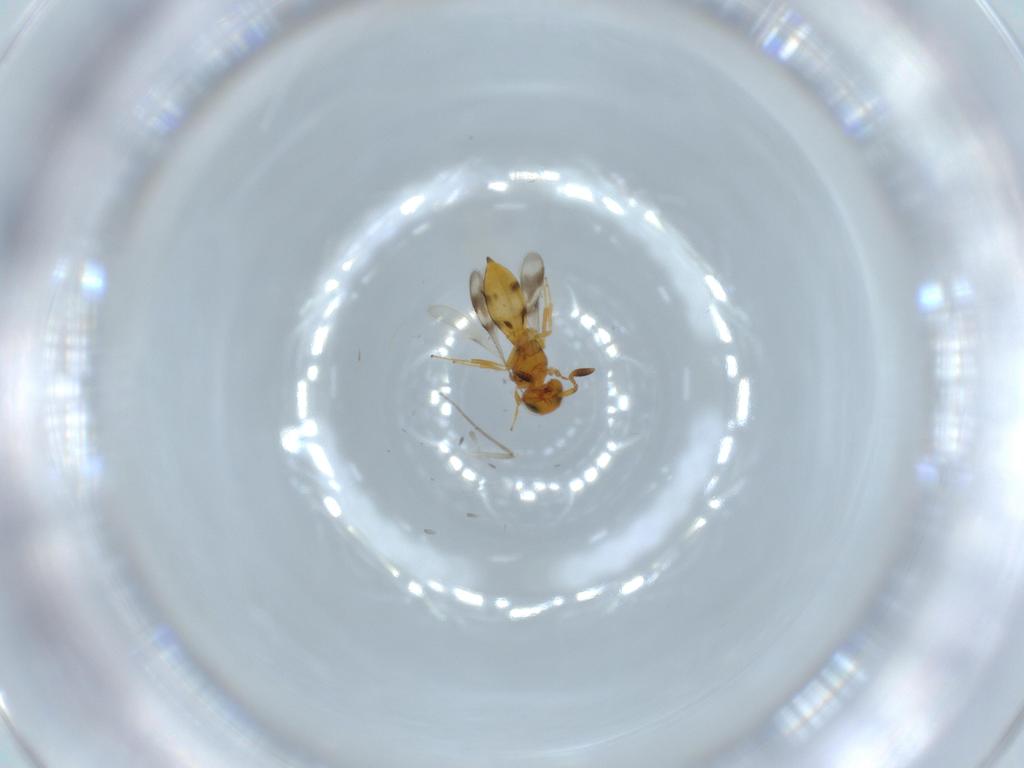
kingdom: Animalia
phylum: Arthropoda
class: Insecta
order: Hymenoptera
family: Scelionidae
